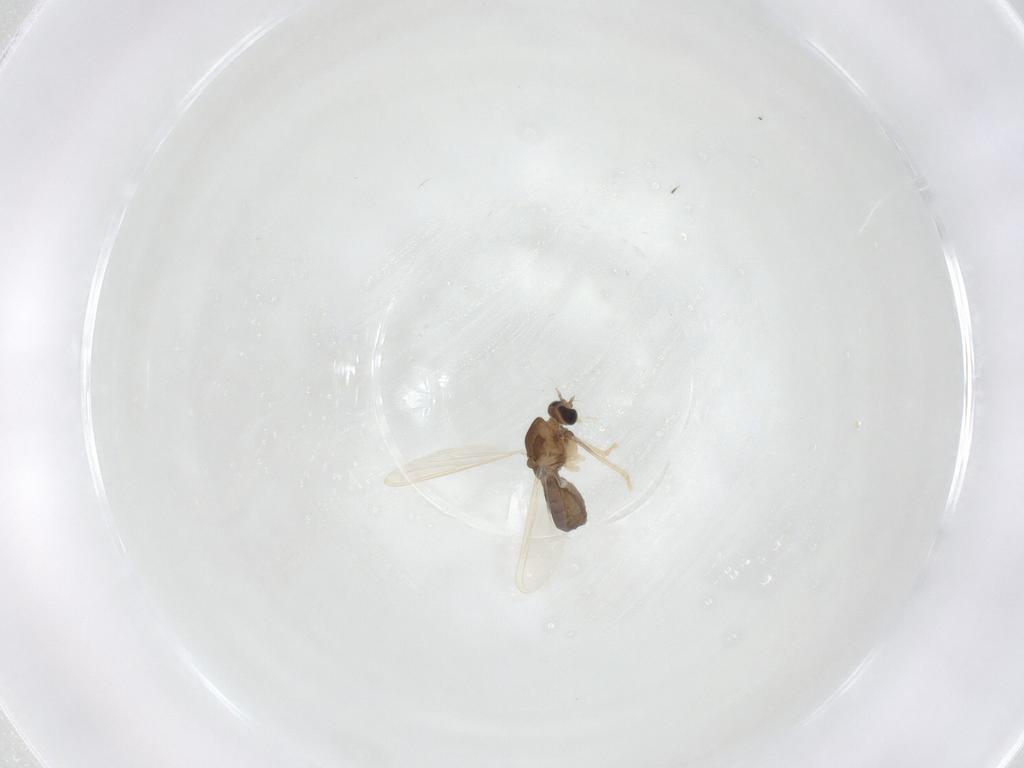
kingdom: Animalia
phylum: Arthropoda
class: Insecta
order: Diptera
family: Chironomidae
